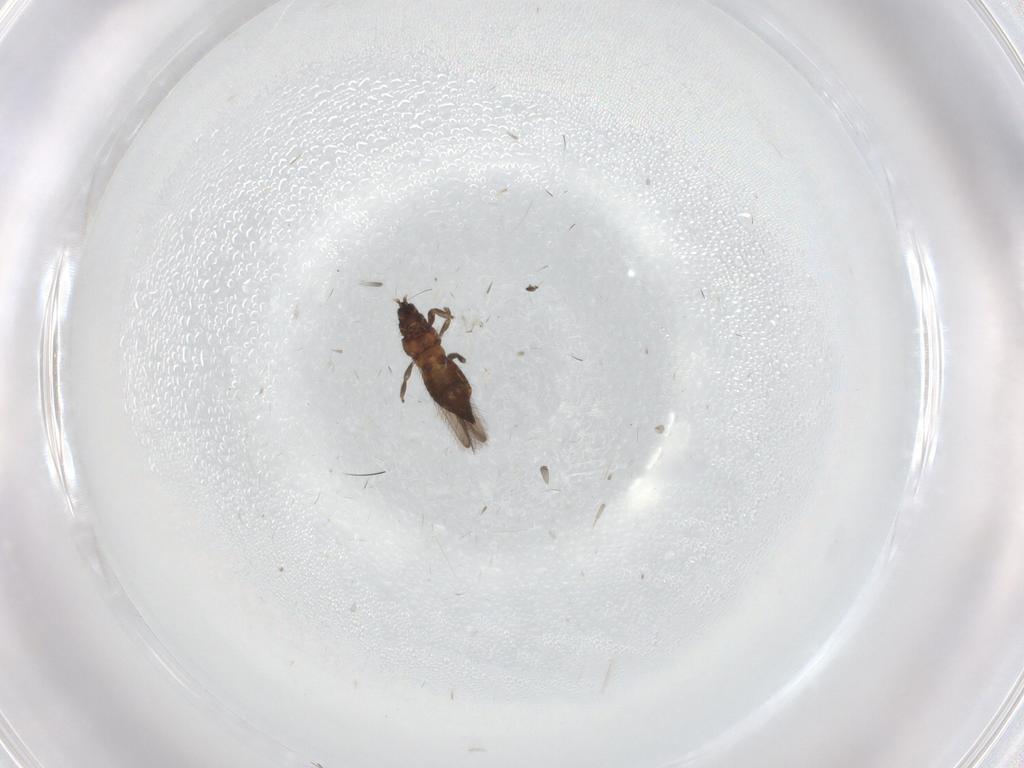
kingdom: Animalia
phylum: Arthropoda
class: Insecta
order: Thysanoptera
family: Melanthripidae
